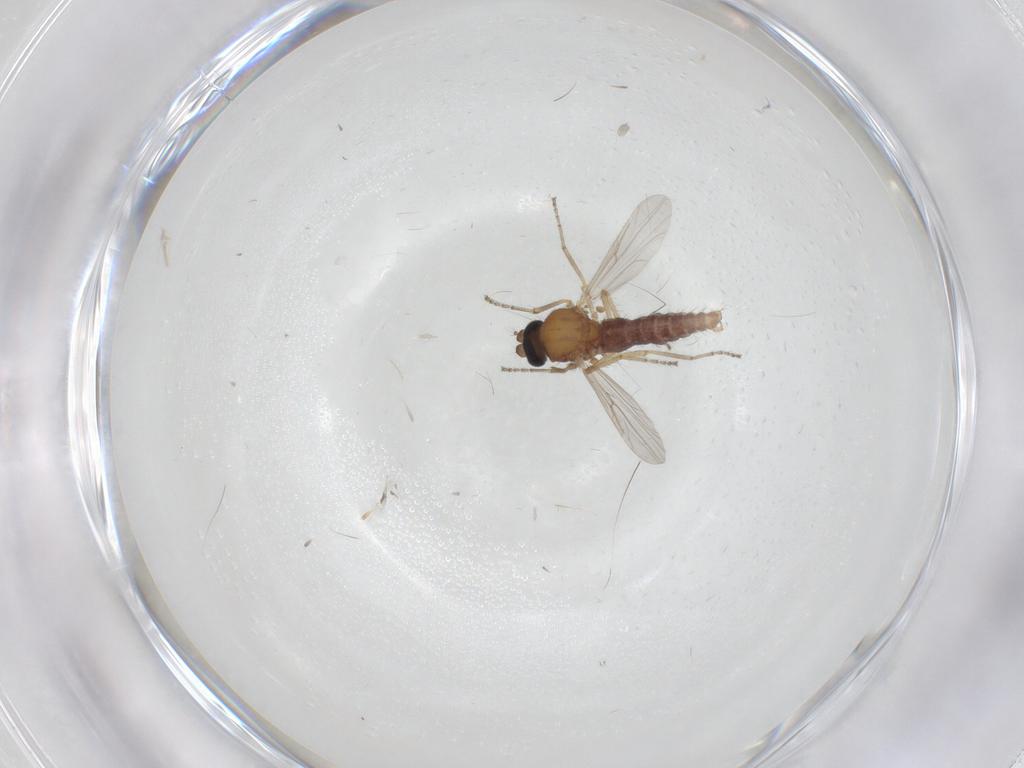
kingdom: Animalia
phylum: Arthropoda
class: Insecta
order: Diptera
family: Ceratopogonidae
